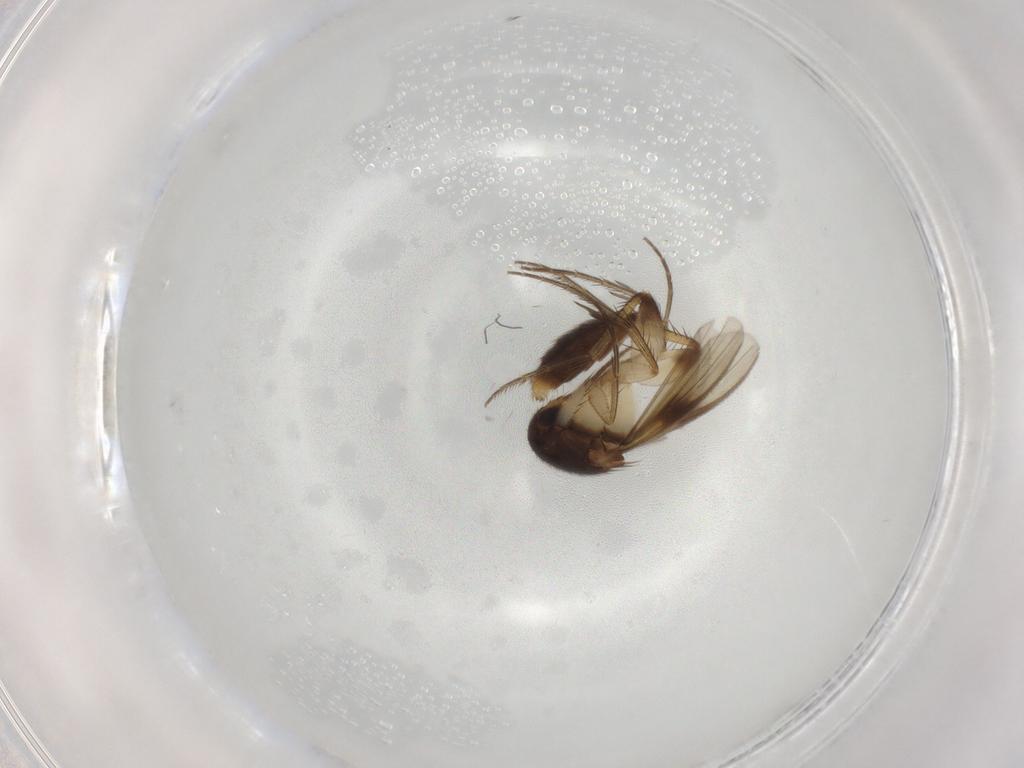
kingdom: Animalia
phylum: Arthropoda
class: Insecta
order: Diptera
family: Mycetophilidae
